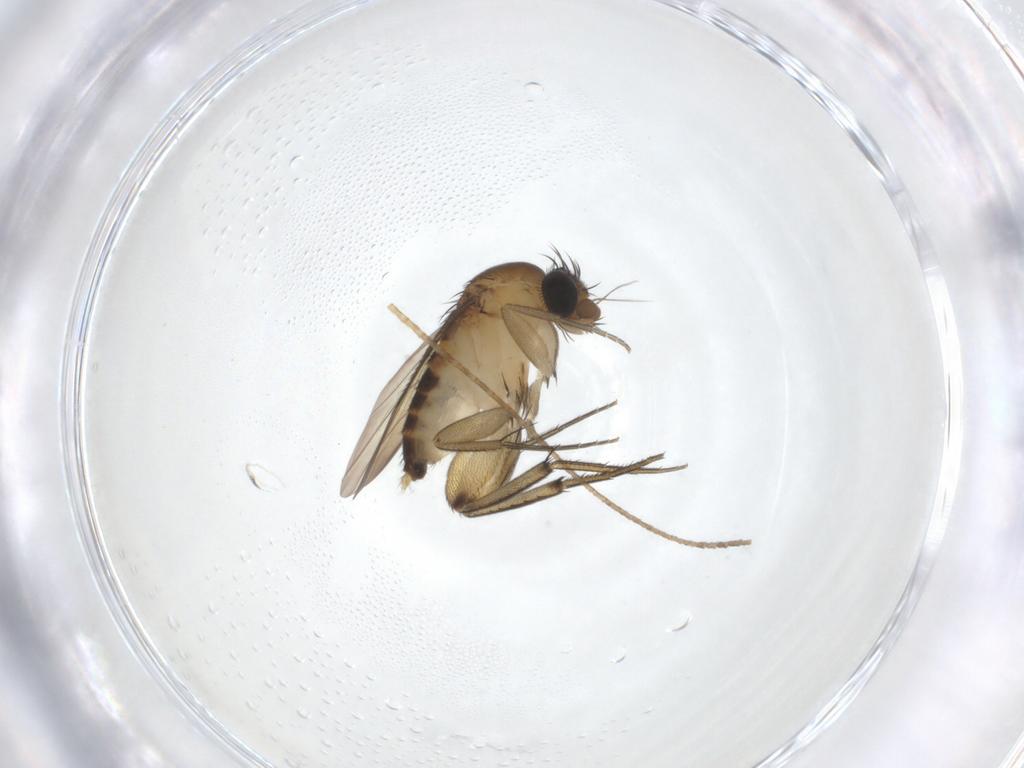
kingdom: Animalia
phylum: Arthropoda
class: Insecta
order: Diptera
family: Phoridae
